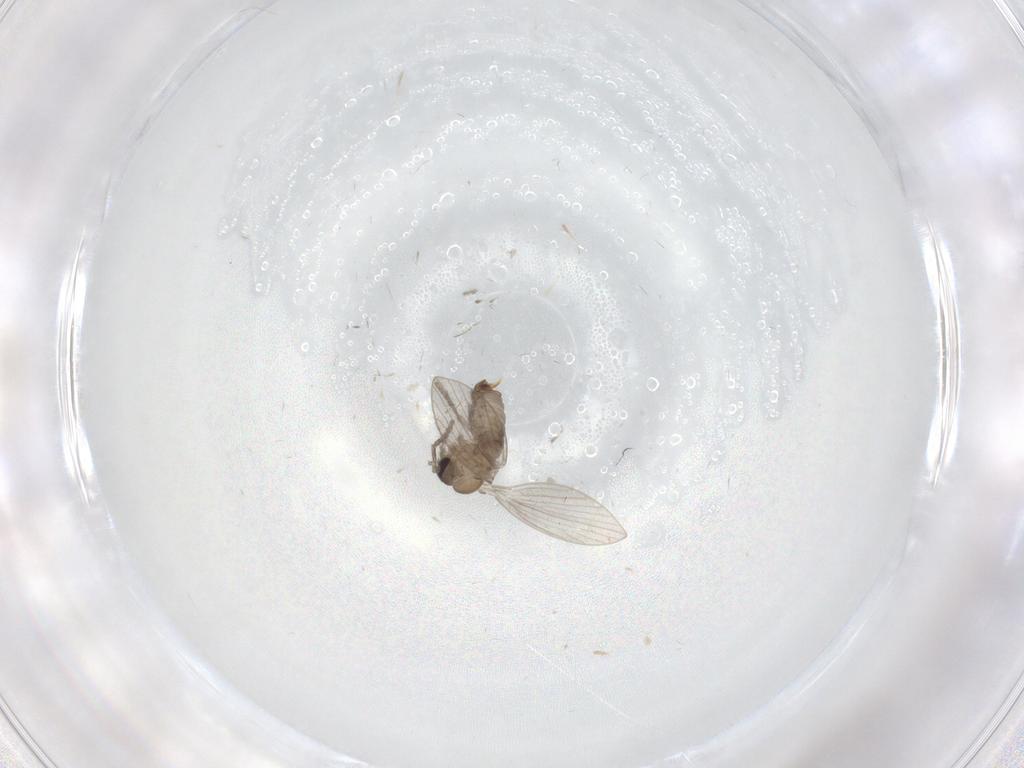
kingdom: Animalia
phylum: Arthropoda
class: Insecta
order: Diptera
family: Psychodidae
